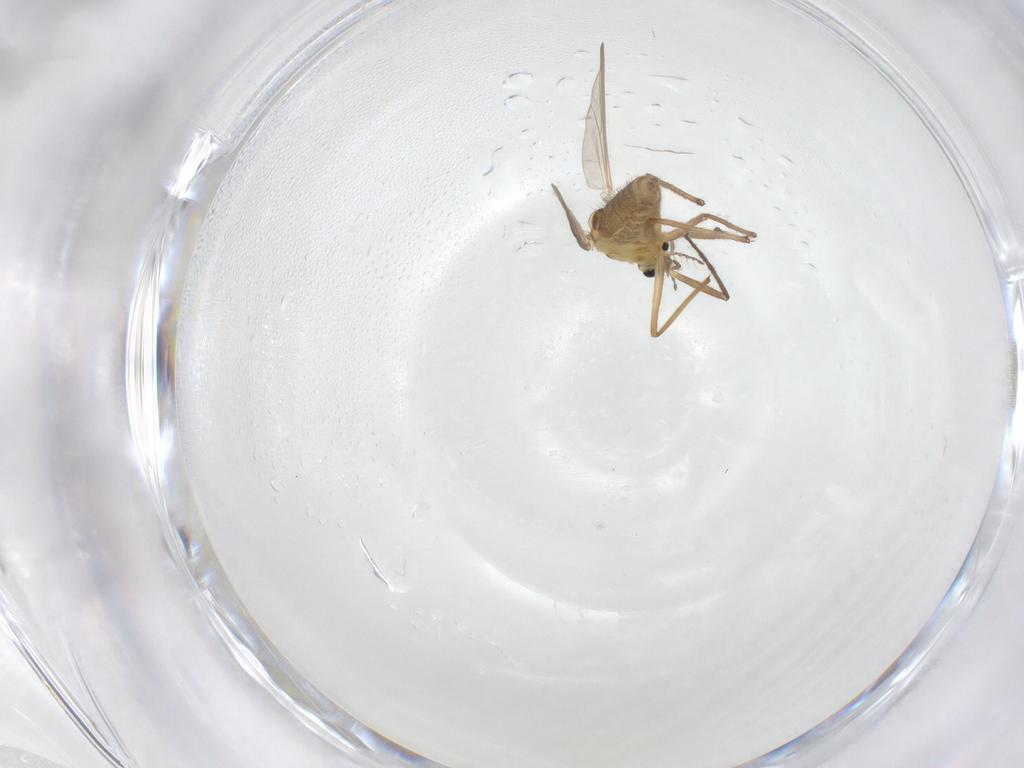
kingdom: Animalia
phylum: Arthropoda
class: Insecta
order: Diptera
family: Chironomidae
